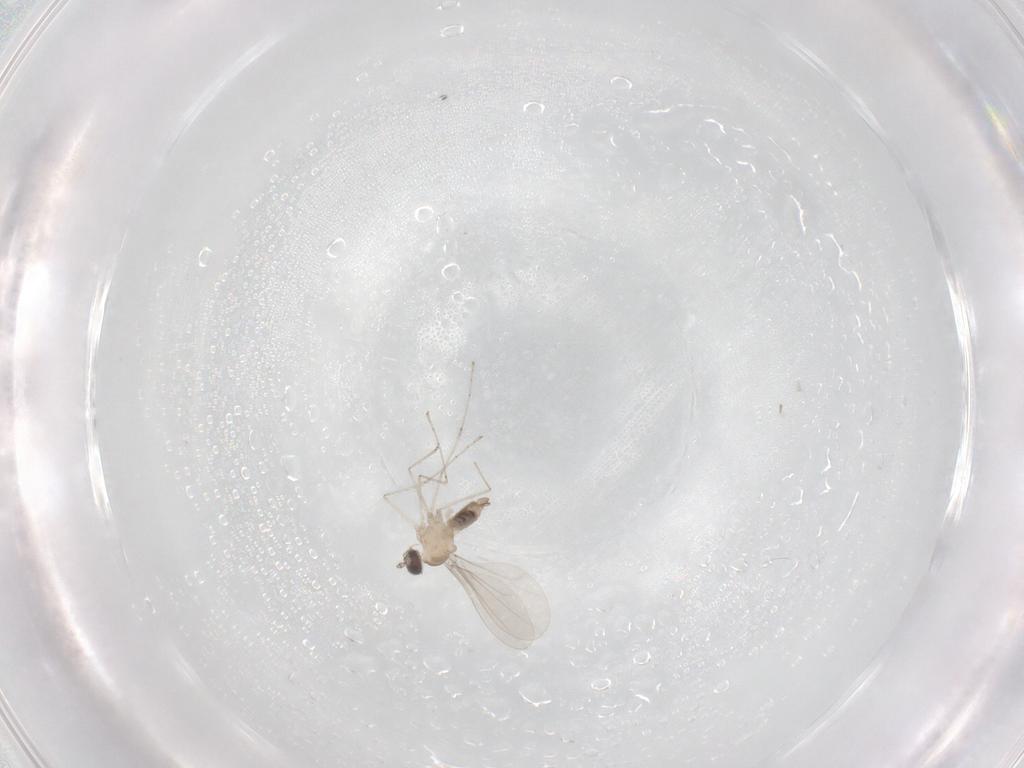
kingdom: Animalia
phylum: Arthropoda
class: Insecta
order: Diptera
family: Cecidomyiidae
